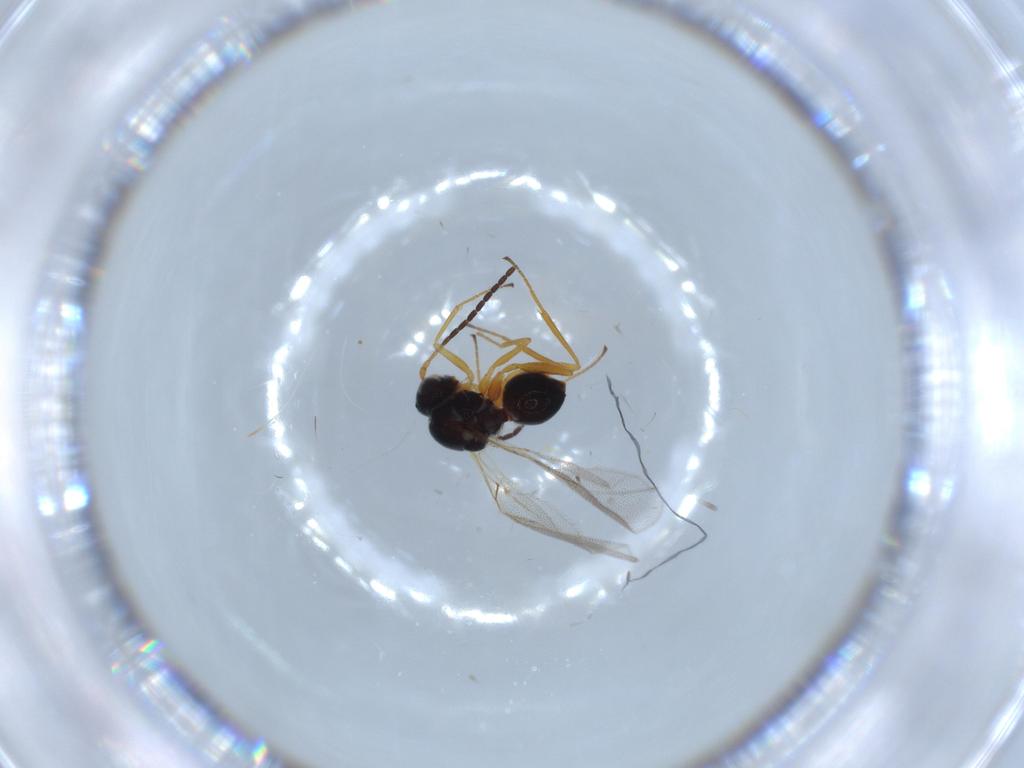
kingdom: Animalia
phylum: Arthropoda
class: Insecta
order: Hymenoptera
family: Figitidae
